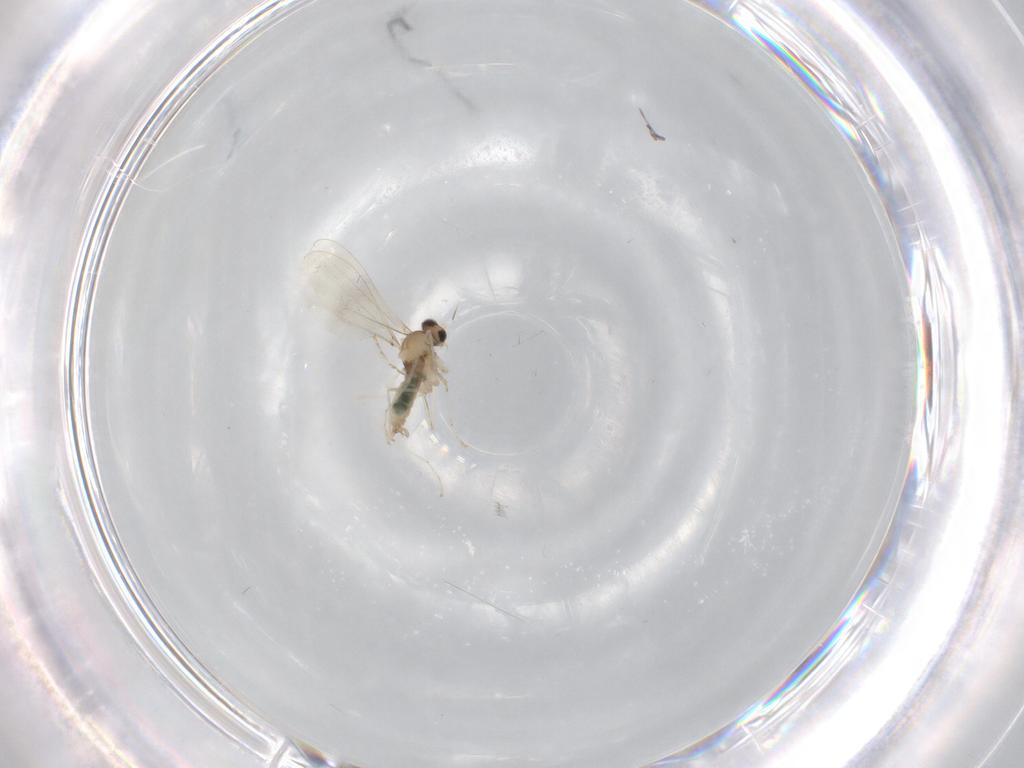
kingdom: Animalia
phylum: Arthropoda
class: Insecta
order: Diptera
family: Cecidomyiidae
